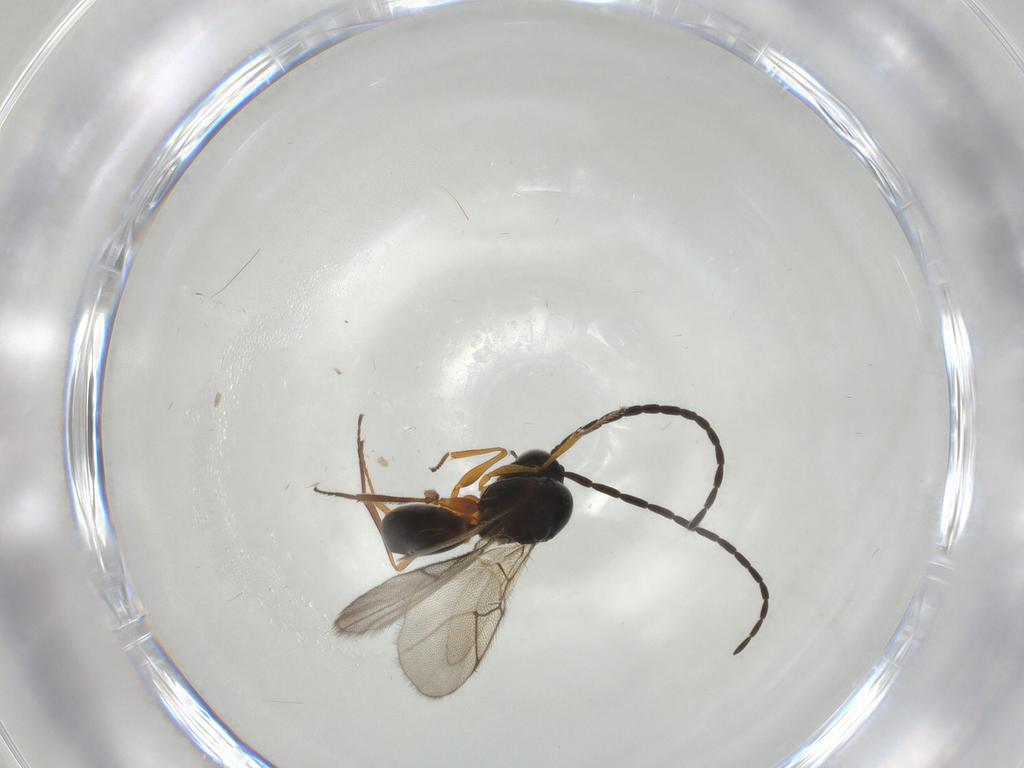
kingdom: Animalia
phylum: Arthropoda
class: Insecta
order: Hymenoptera
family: Figitidae
